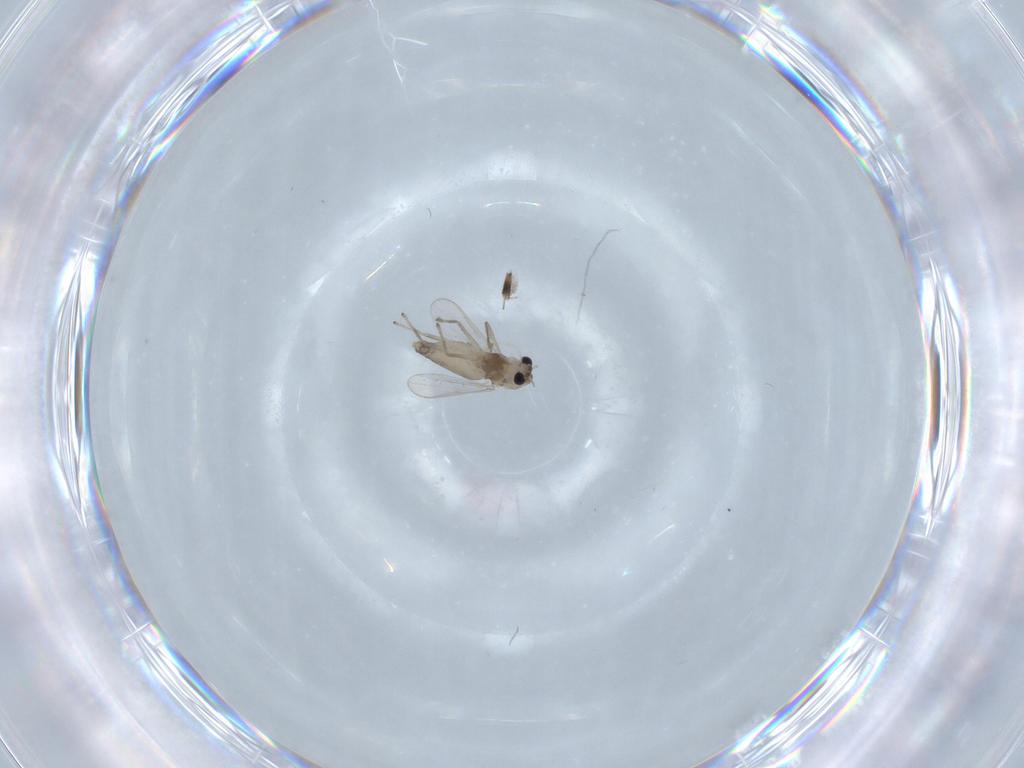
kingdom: Animalia
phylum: Arthropoda
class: Insecta
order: Diptera
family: Chironomidae
